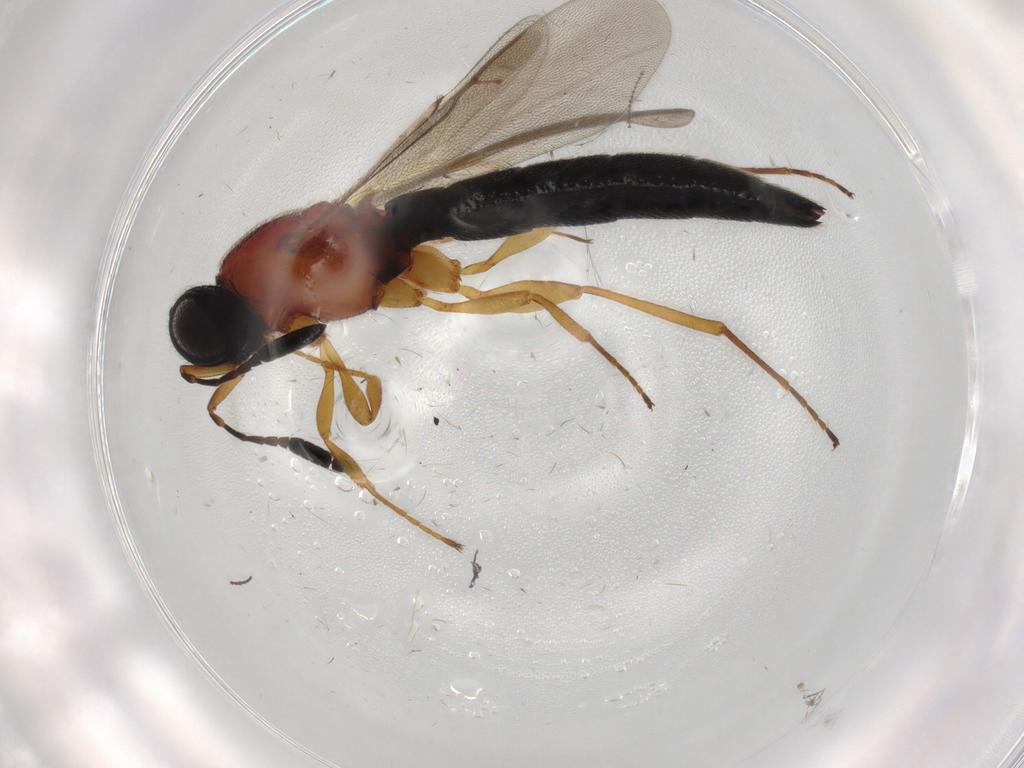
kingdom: Animalia
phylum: Arthropoda
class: Insecta
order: Hymenoptera
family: Scelionidae
